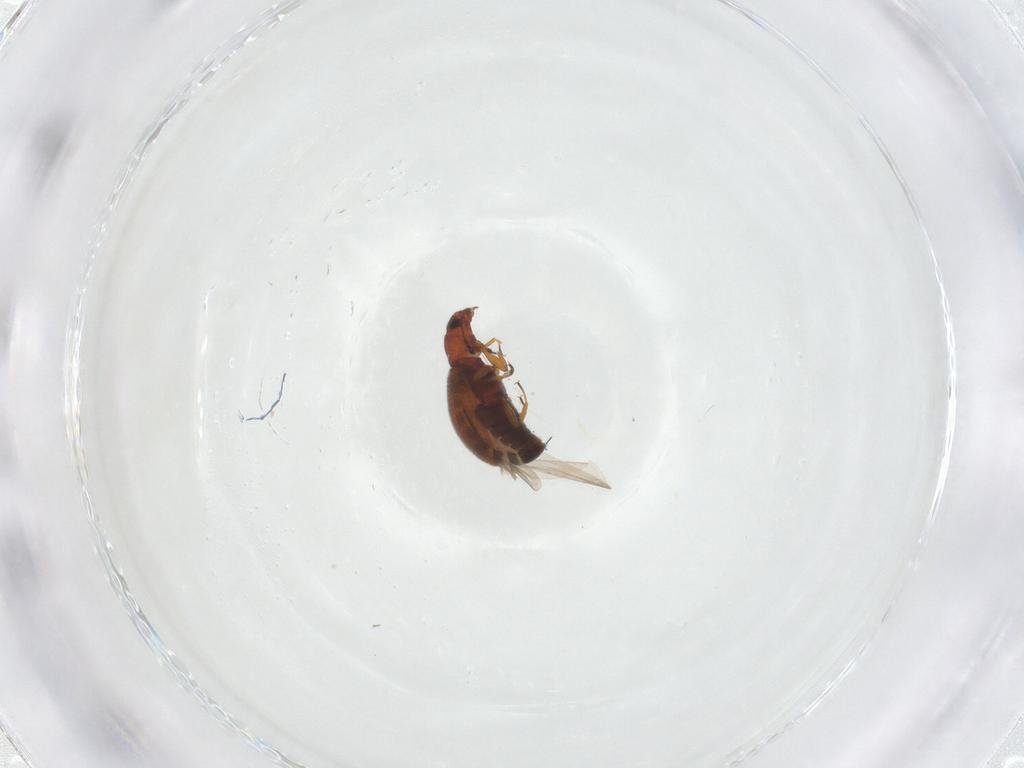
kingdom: Animalia
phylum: Arthropoda
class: Insecta
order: Coleoptera
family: Latridiidae
